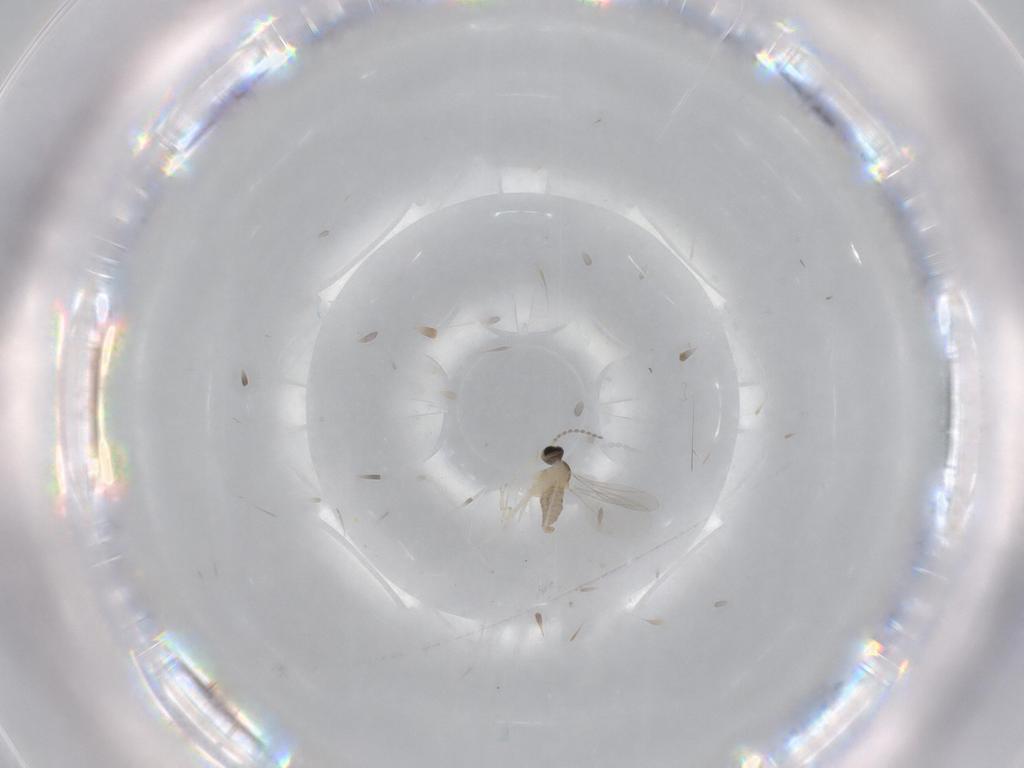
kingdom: Animalia
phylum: Arthropoda
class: Insecta
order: Diptera
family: Cecidomyiidae
